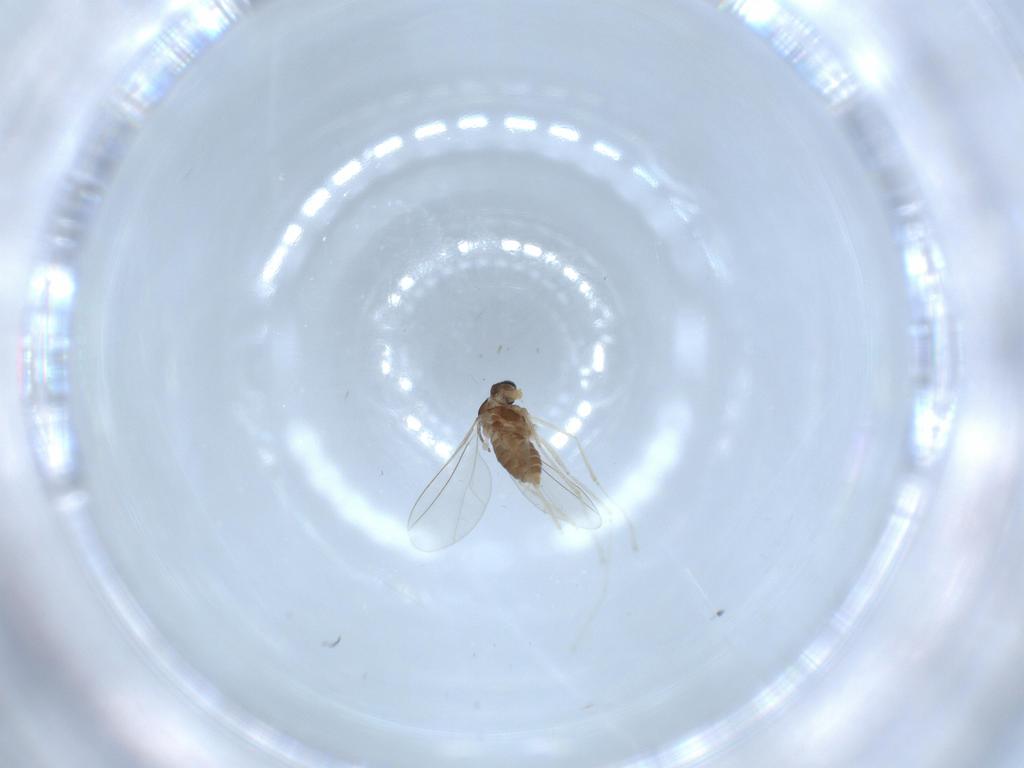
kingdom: Animalia
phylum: Arthropoda
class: Insecta
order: Diptera
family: Cecidomyiidae
